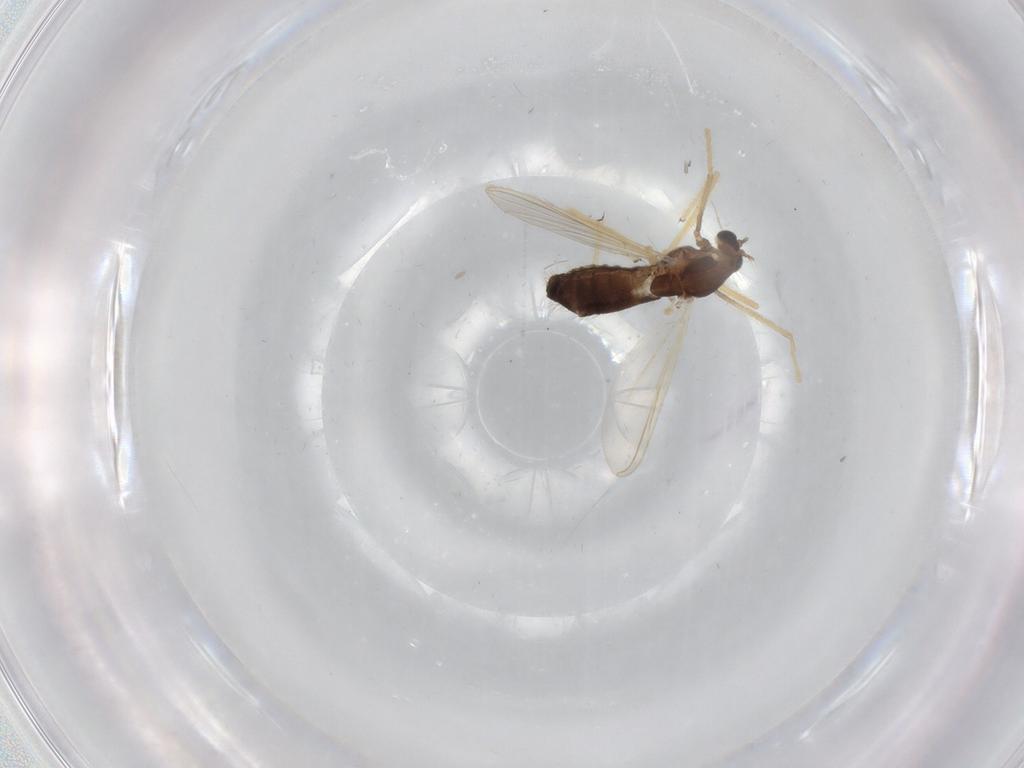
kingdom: Animalia
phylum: Arthropoda
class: Insecta
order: Diptera
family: Chironomidae
